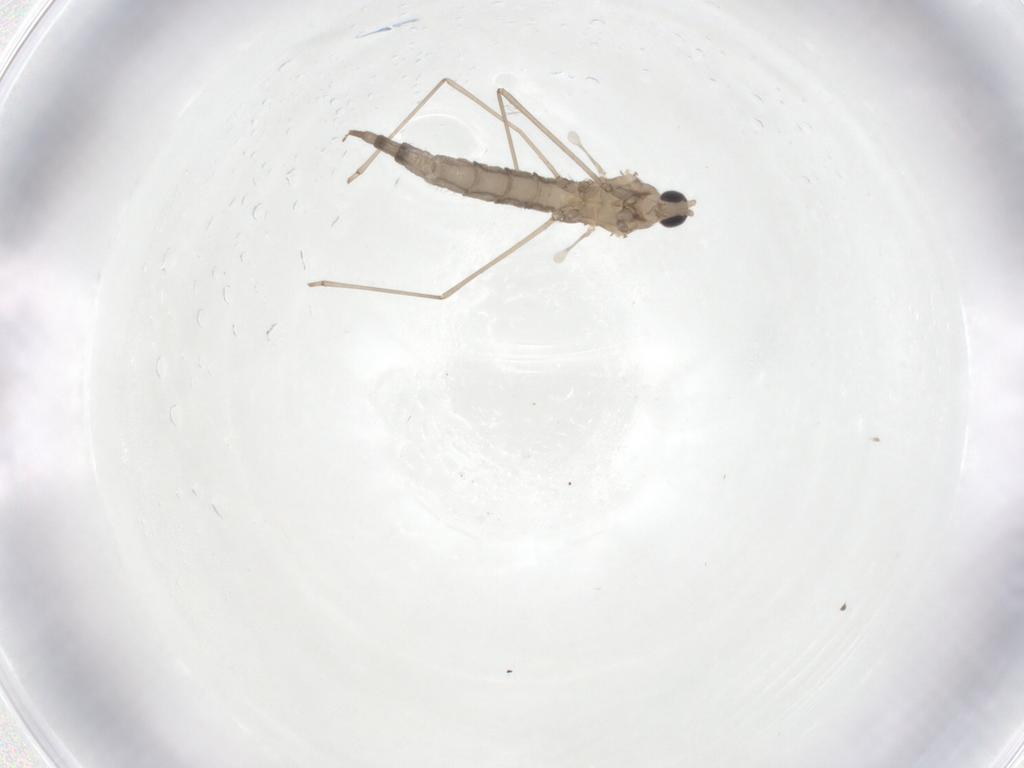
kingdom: Animalia
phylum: Arthropoda
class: Insecta
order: Diptera
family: Cecidomyiidae
